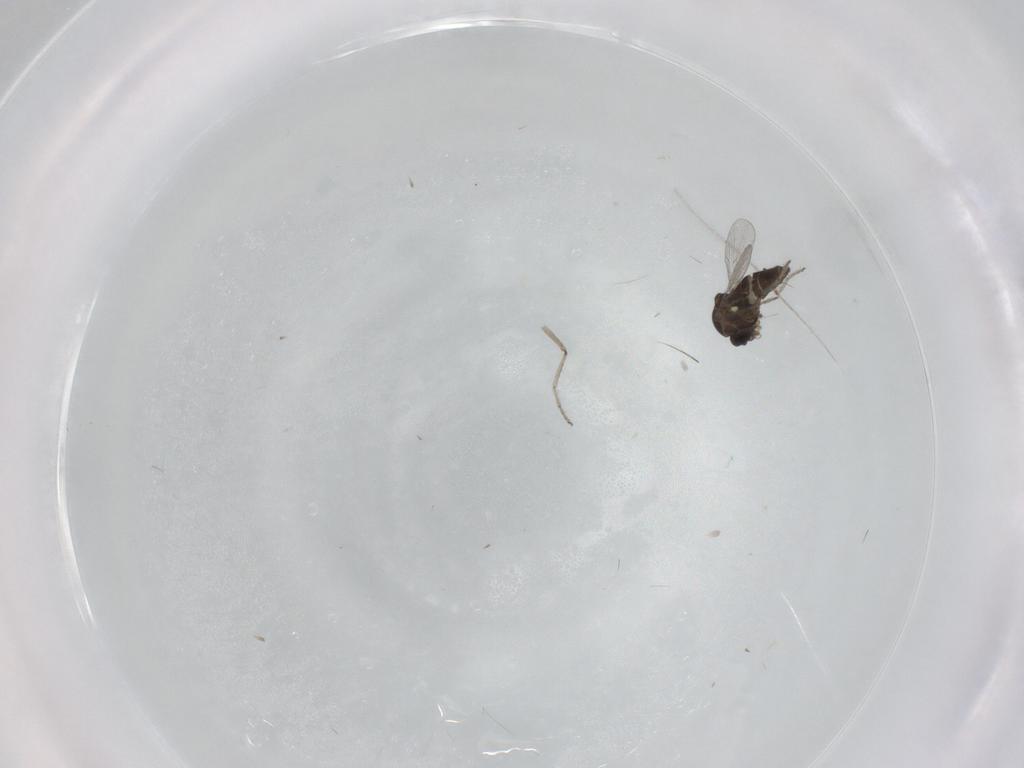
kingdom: Animalia
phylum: Arthropoda
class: Insecta
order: Diptera
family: Ceratopogonidae
